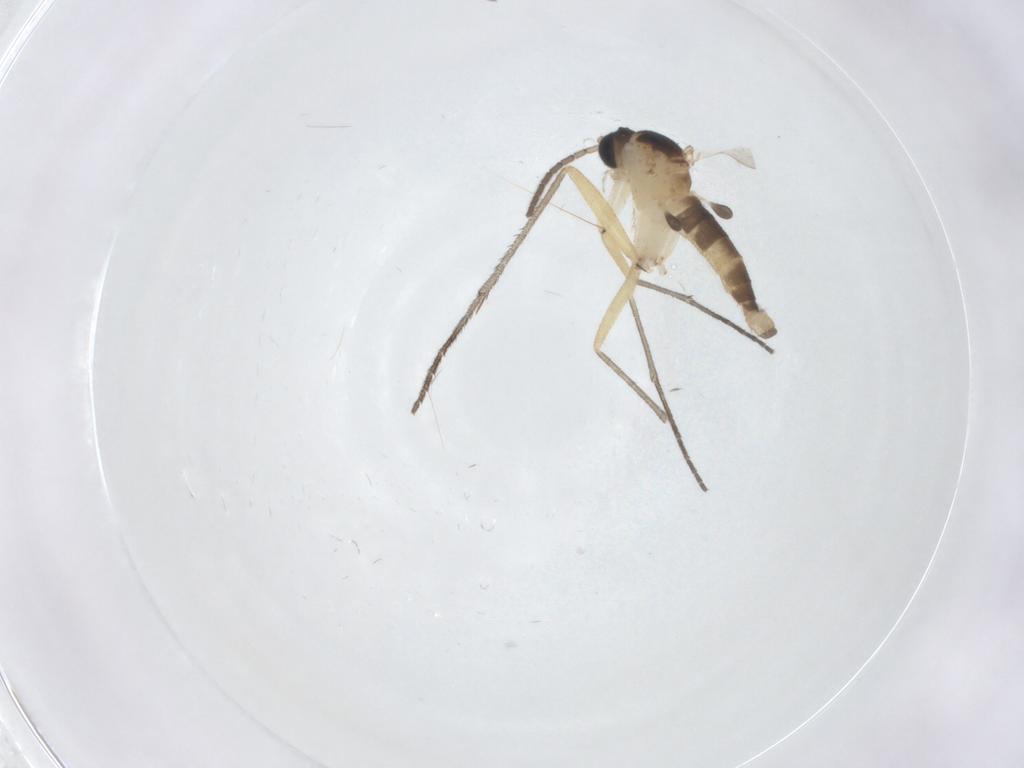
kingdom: Animalia
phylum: Arthropoda
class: Insecta
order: Diptera
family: Sciaridae
